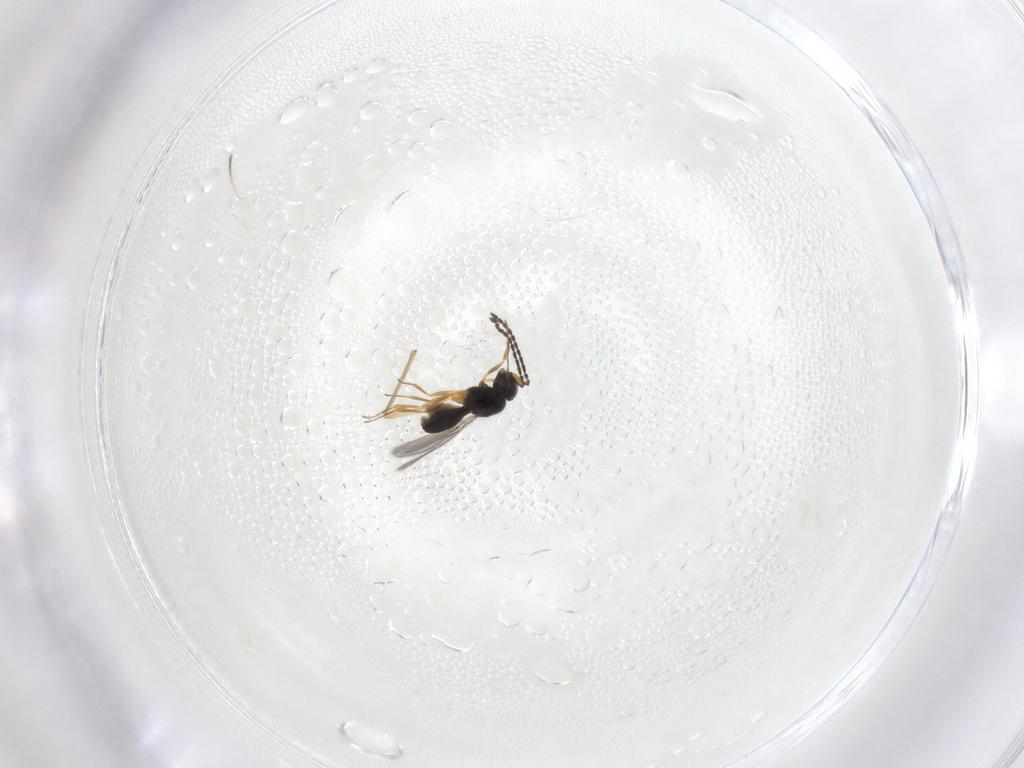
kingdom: Animalia
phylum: Arthropoda
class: Insecta
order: Hymenoptera
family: Scelionidae
